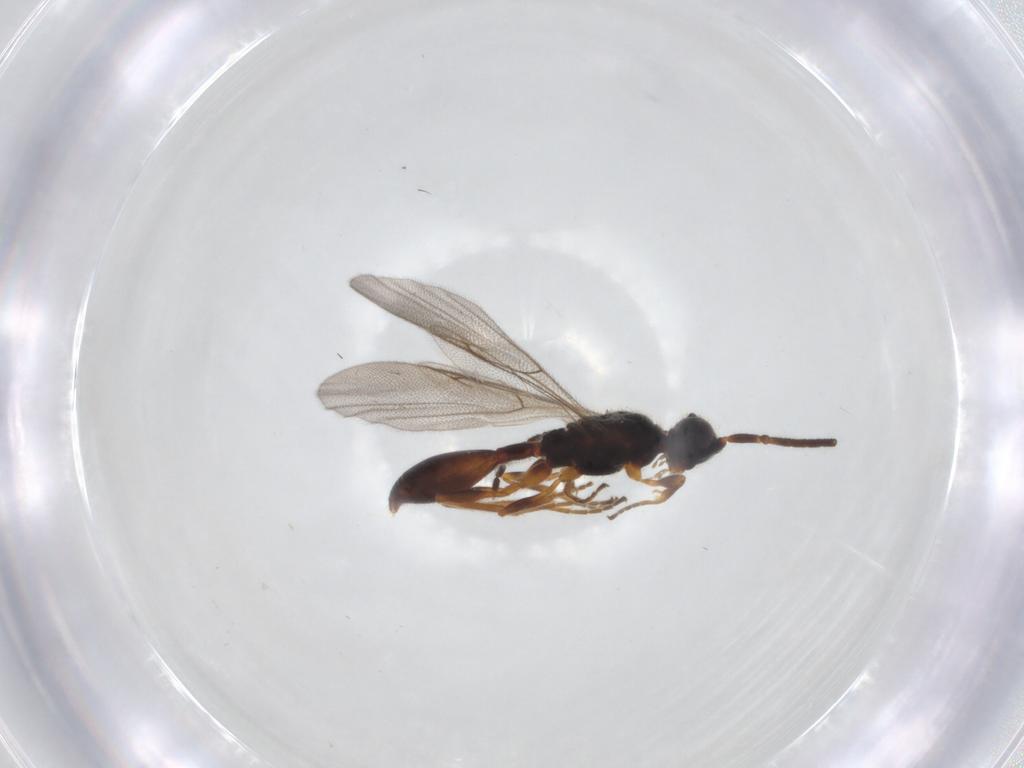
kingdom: Animalia
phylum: Arthropoda
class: Insecta
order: Hymenoptera
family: Diapriidae
